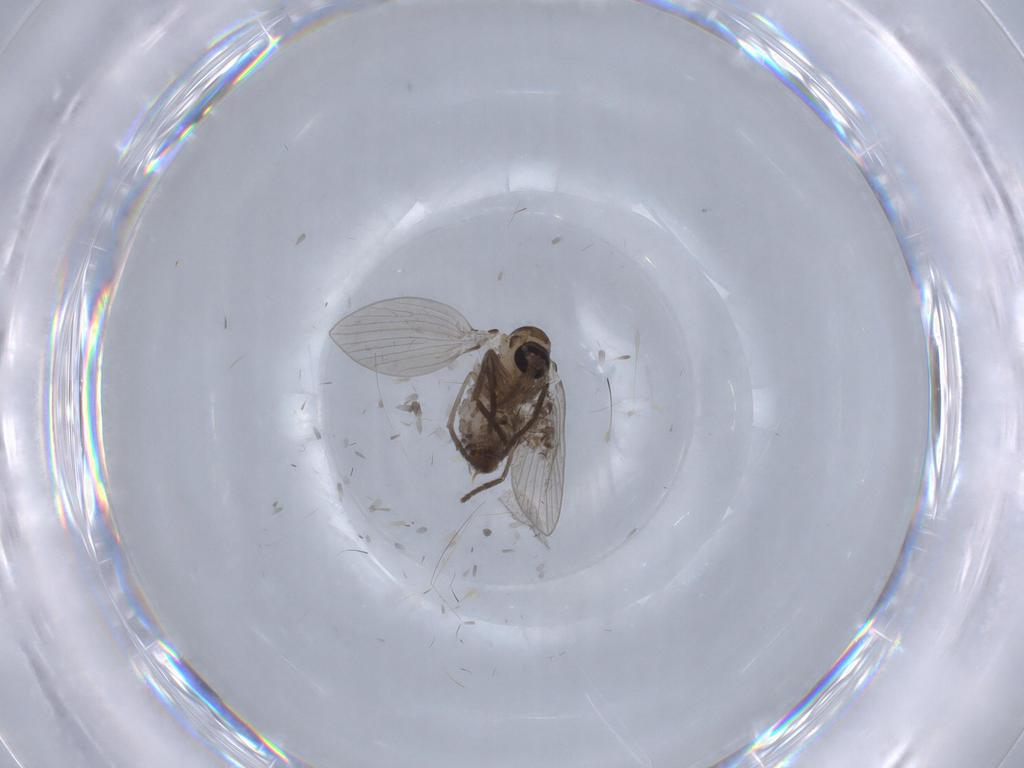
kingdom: Animalia
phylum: Arthropoda
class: Insecta
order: Diptera
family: Psychodidae
